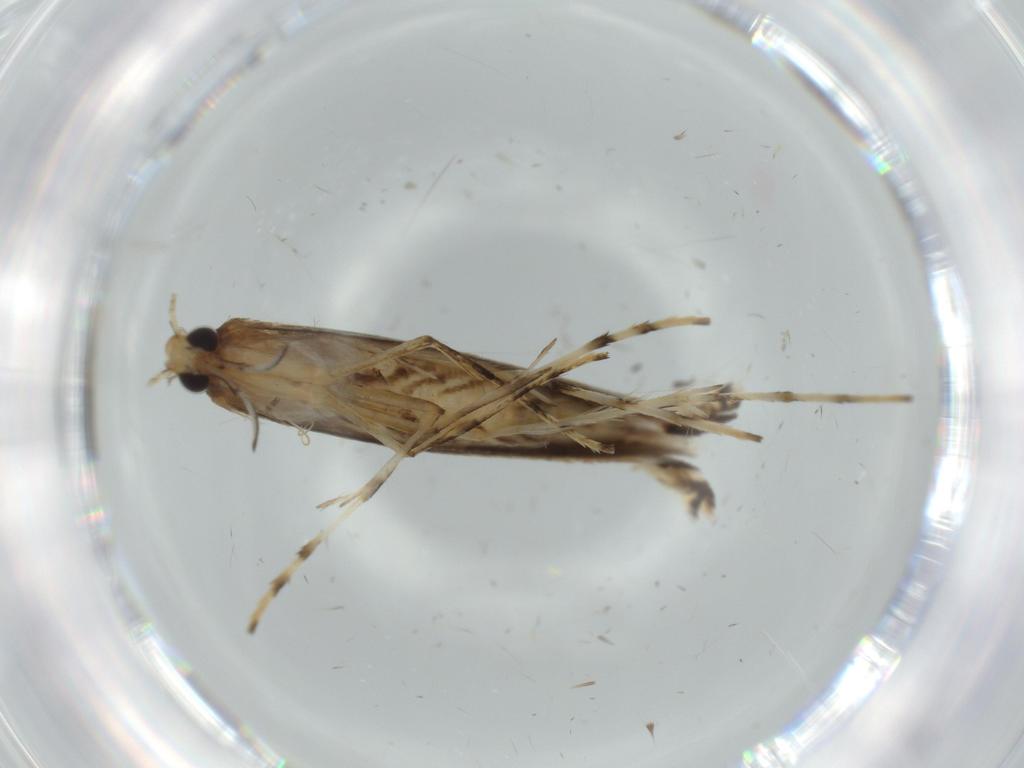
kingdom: Animalia
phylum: Arthropoda
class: Insecta
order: Lepidoptera
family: Gracillariidae
